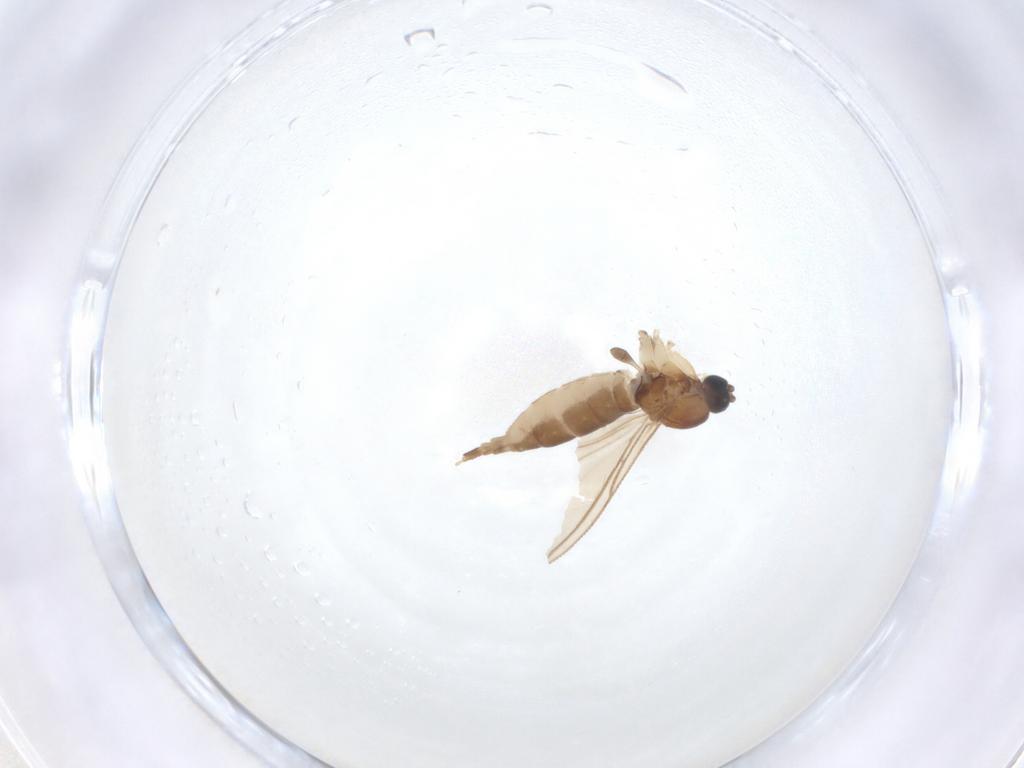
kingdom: Animalia
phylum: Arthropoda
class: Insecta
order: Diptera
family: Sciaridae
